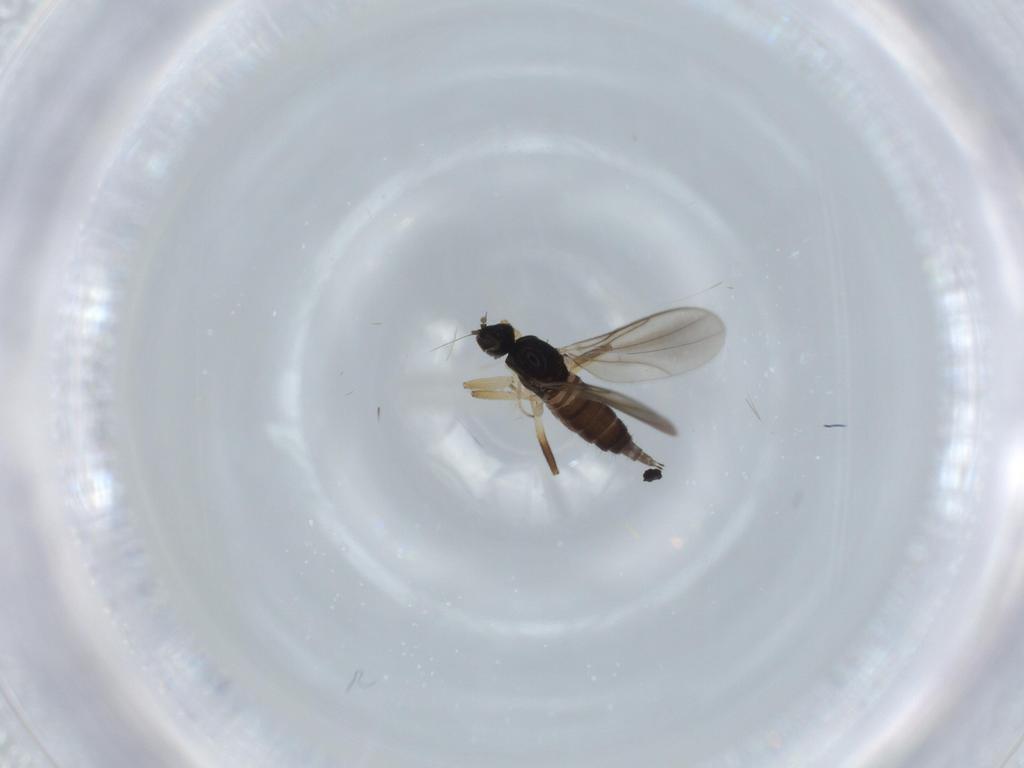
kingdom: Animalia
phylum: Arthropoda
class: Insecta
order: Diptera
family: Hybotidae
